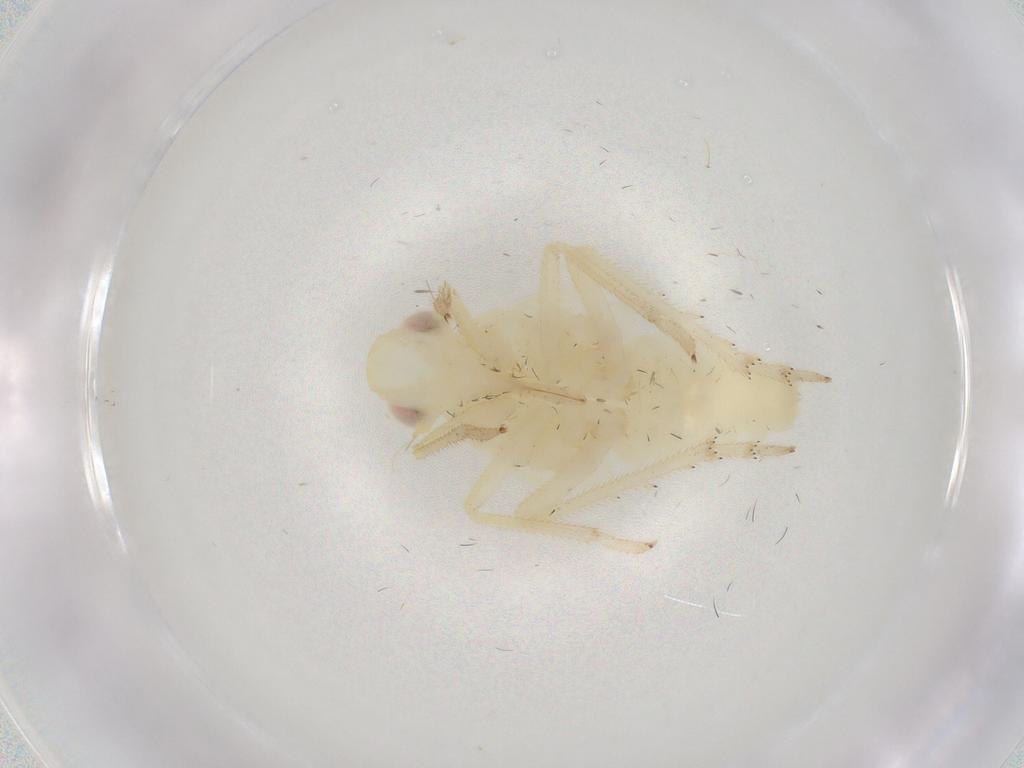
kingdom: Animalia
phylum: Arthropoda
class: Insecta
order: Hemiptera
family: Tropiduchidae
